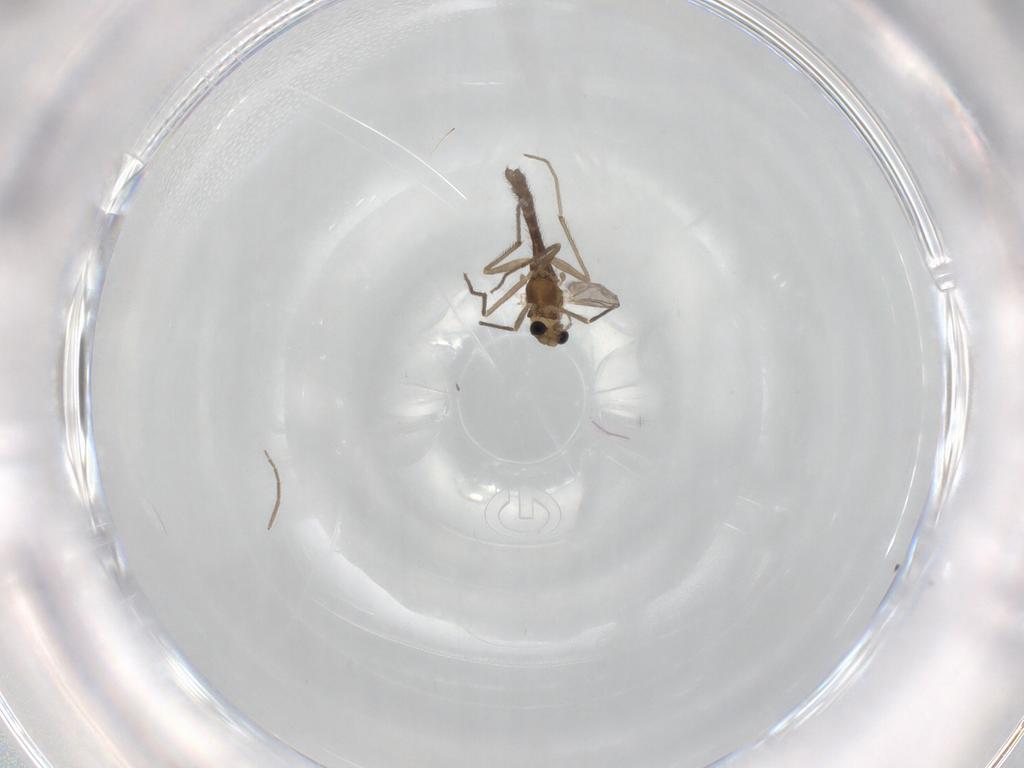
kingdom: Animalia
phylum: Arthropoda
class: Insecta
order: Diptera
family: Chironomidae
